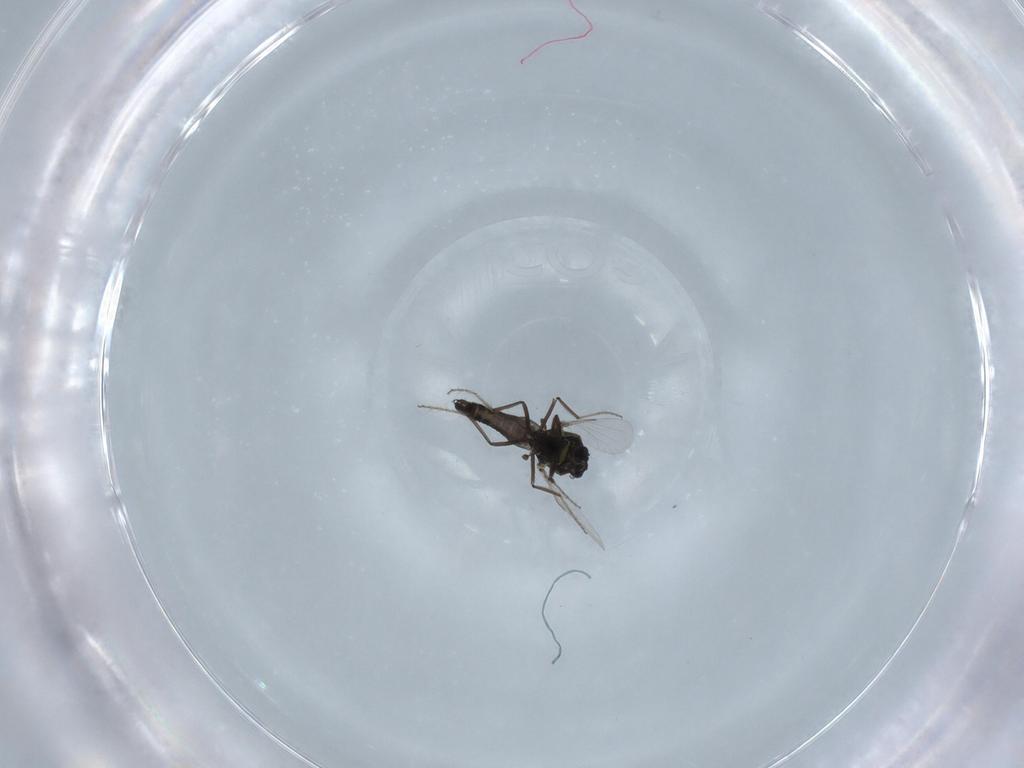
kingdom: Animalia
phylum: Arthropoda
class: Insecta
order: Diptera
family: Ceratopogonidae
